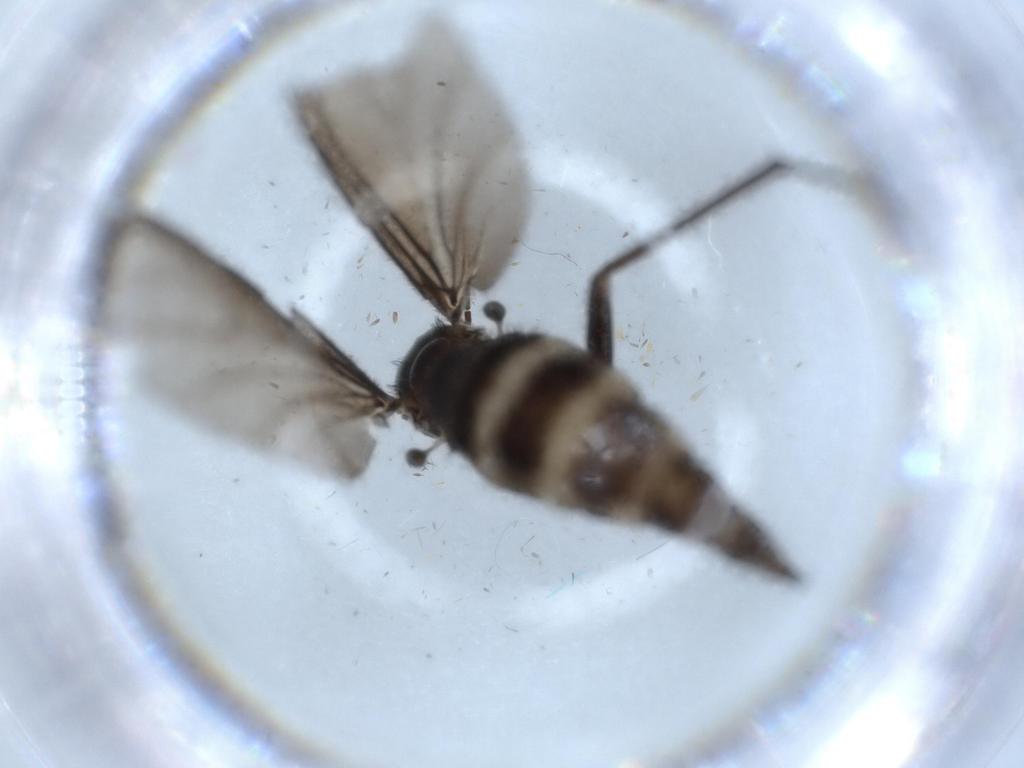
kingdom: Animalia
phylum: Arthropoda
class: Insecta
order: Diptera
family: Sciaridae
